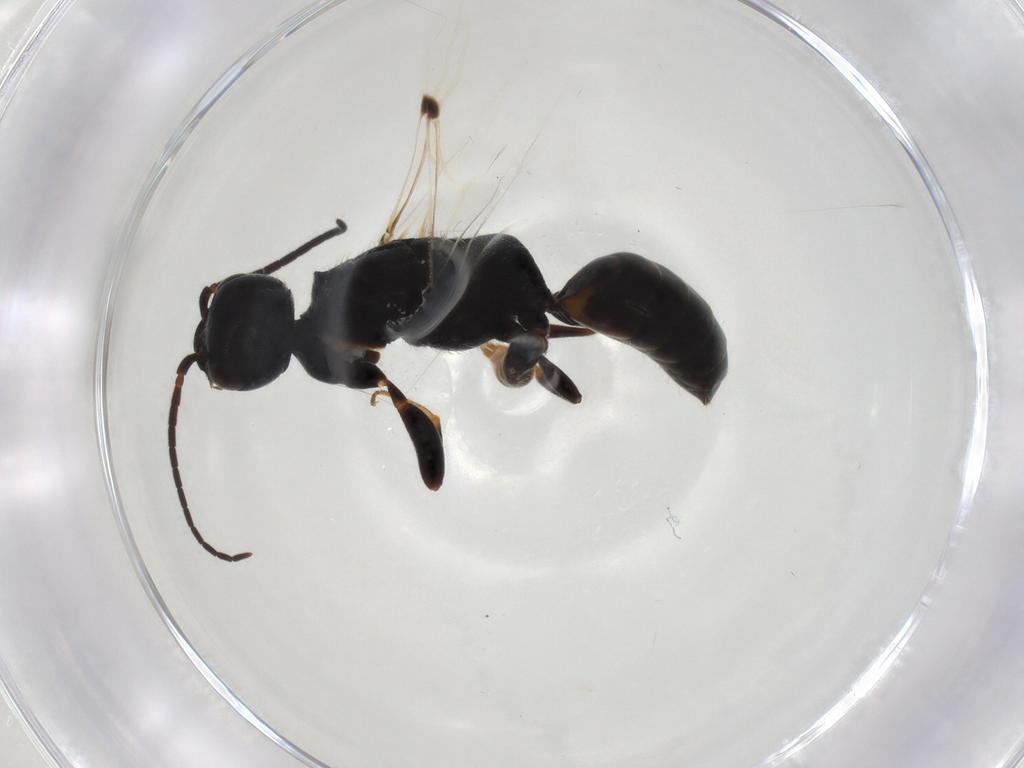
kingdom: Animalia
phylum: Arthropoda
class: Insecta
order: Hymenoptera
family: Bethylidae
